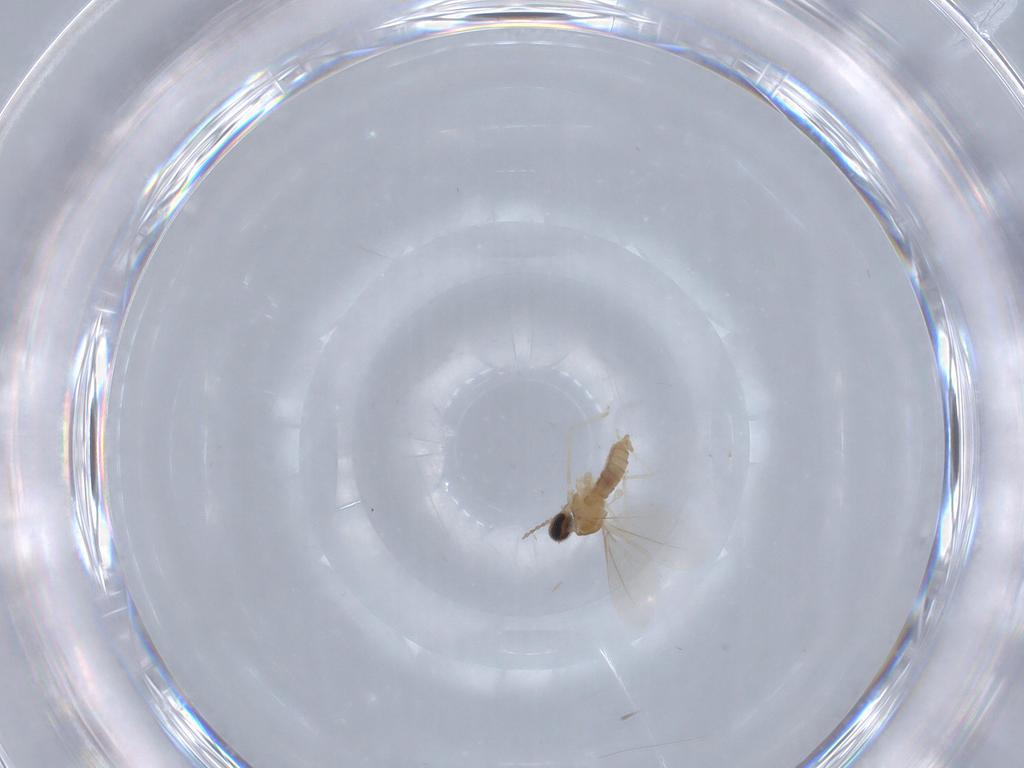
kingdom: Animalia
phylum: Arthropoda
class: Insecta
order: Diptera
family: Cecidomyiidae
